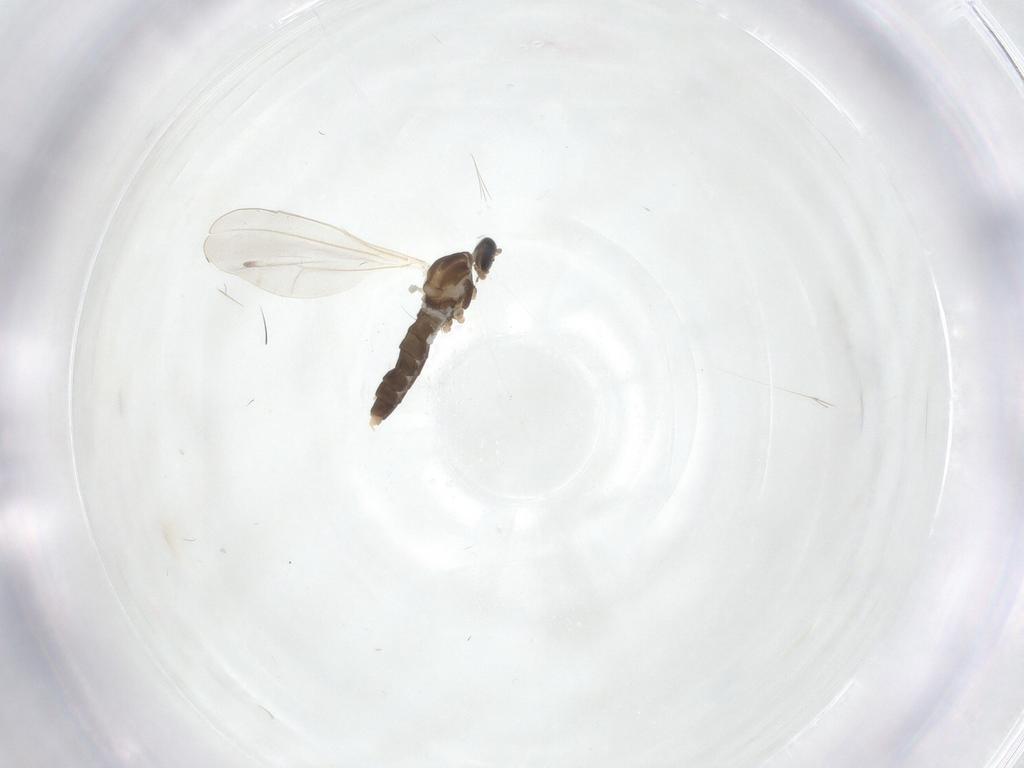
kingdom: Animalia
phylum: Arthropoda
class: Insecta
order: Diptera
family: Cecidomyiidae
